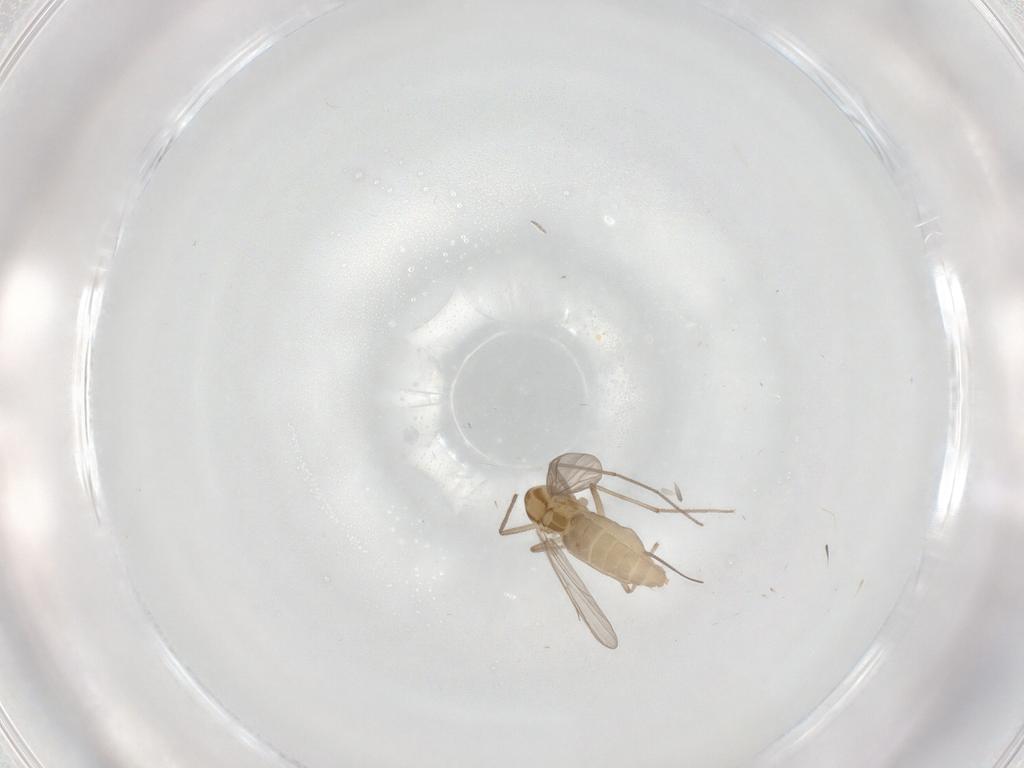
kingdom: Animalia
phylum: Arthropoda
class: Insecta
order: Diptera
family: Chironomidae
